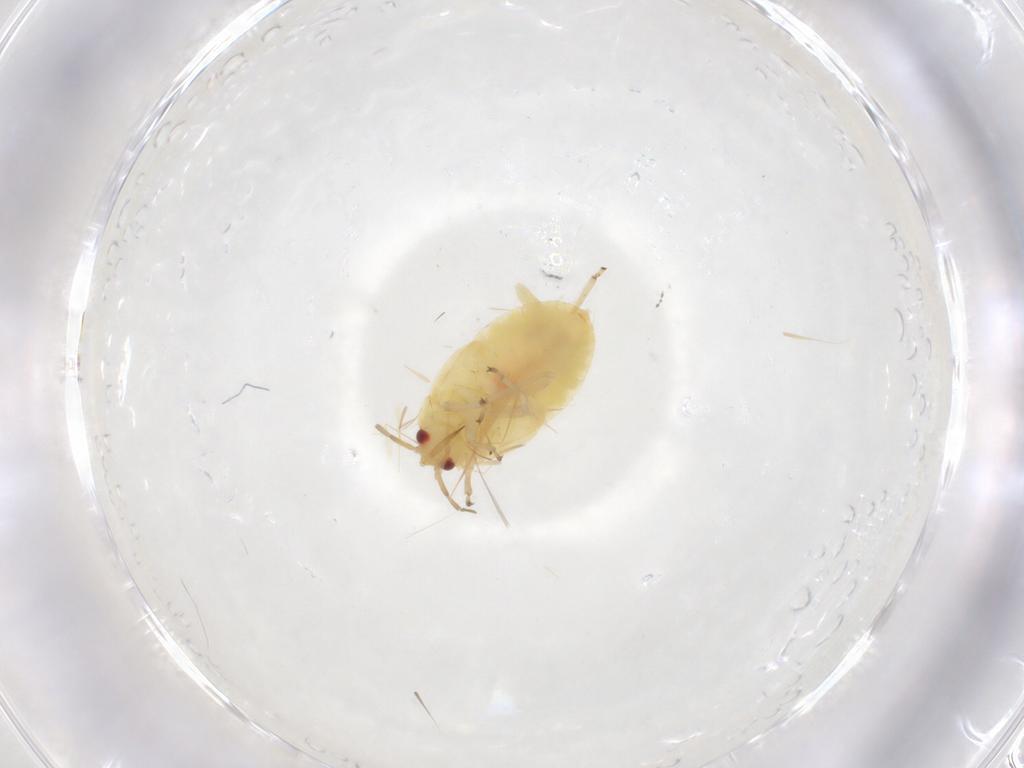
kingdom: Animalia
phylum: Arthropoda
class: Insecta
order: Hemiptera
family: Anthocoridae
